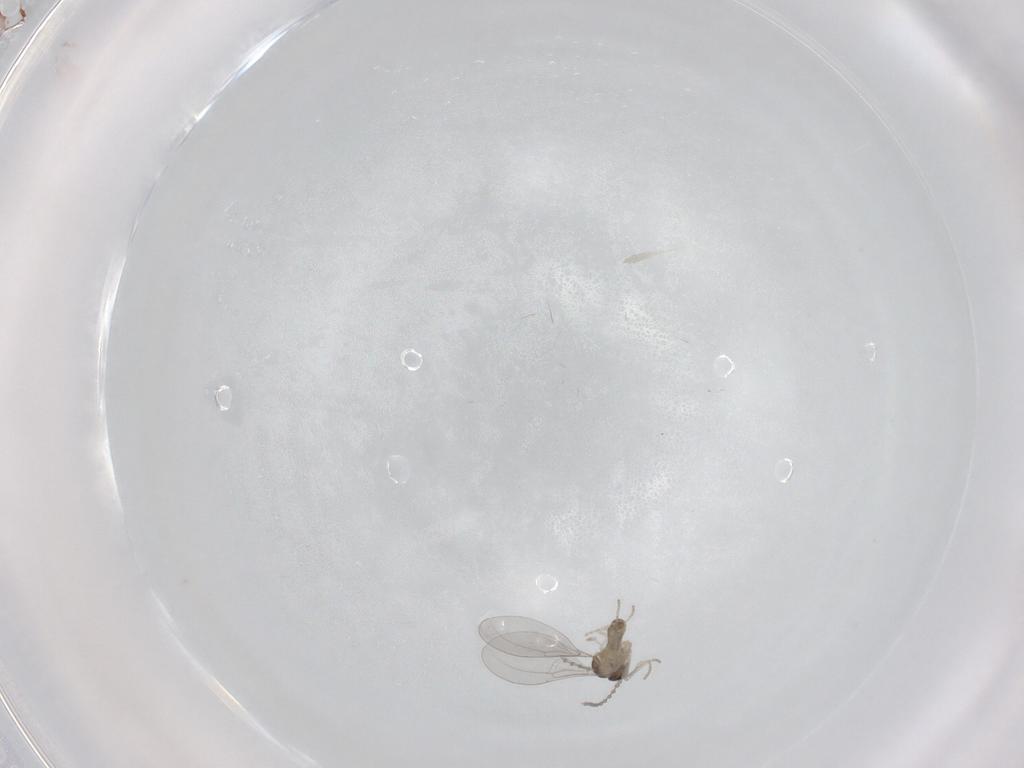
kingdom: Animalia
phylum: Arthropoda
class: Insecta
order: Diptera
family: Cecidomyiidae
